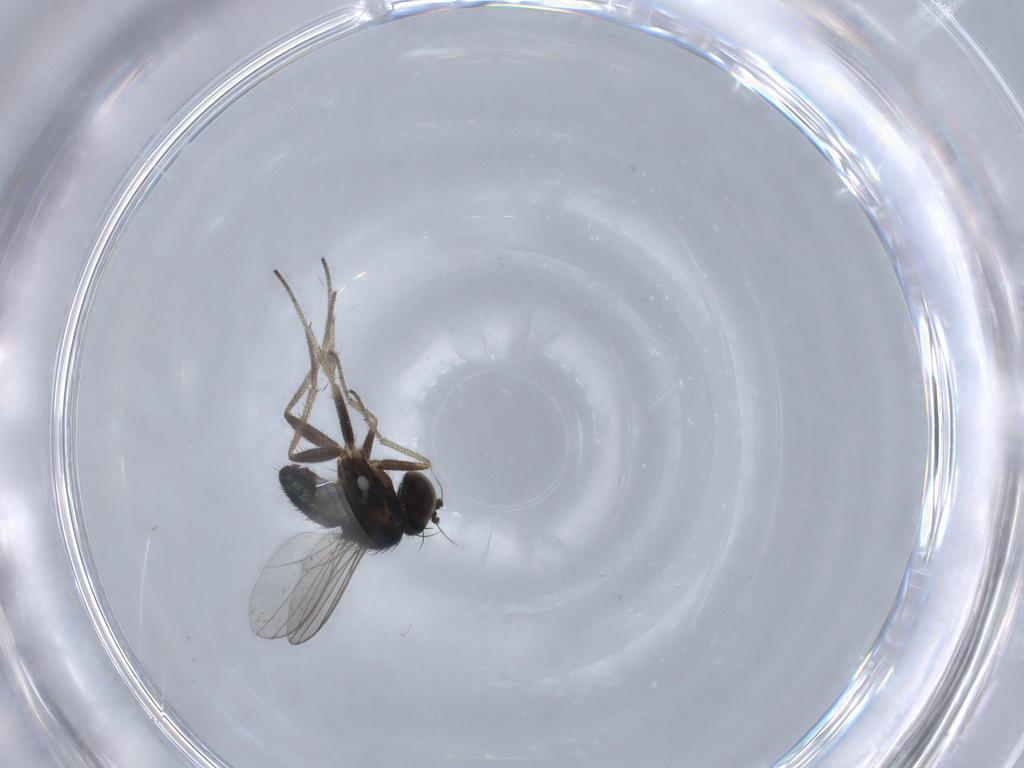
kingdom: Animalia
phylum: Arthropoda
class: Insecta
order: Diptera
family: Dolichopodidae
